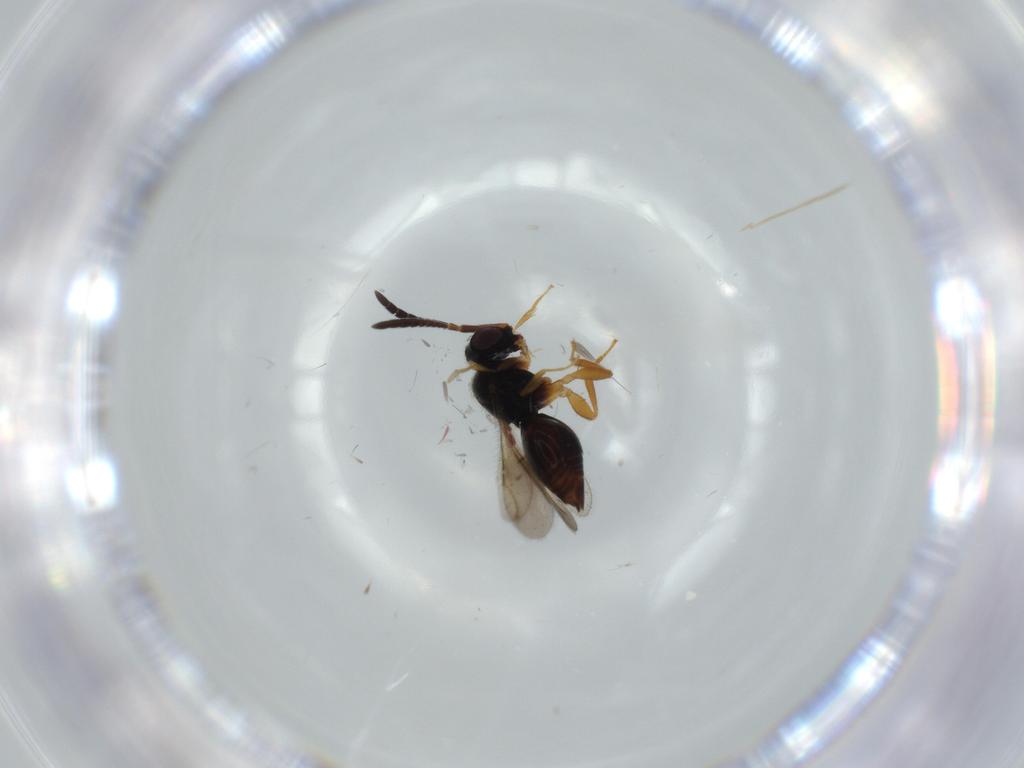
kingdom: Animalia
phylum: Arthropoda
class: Insecta
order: Hymenoptera
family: Ceraphronidae
